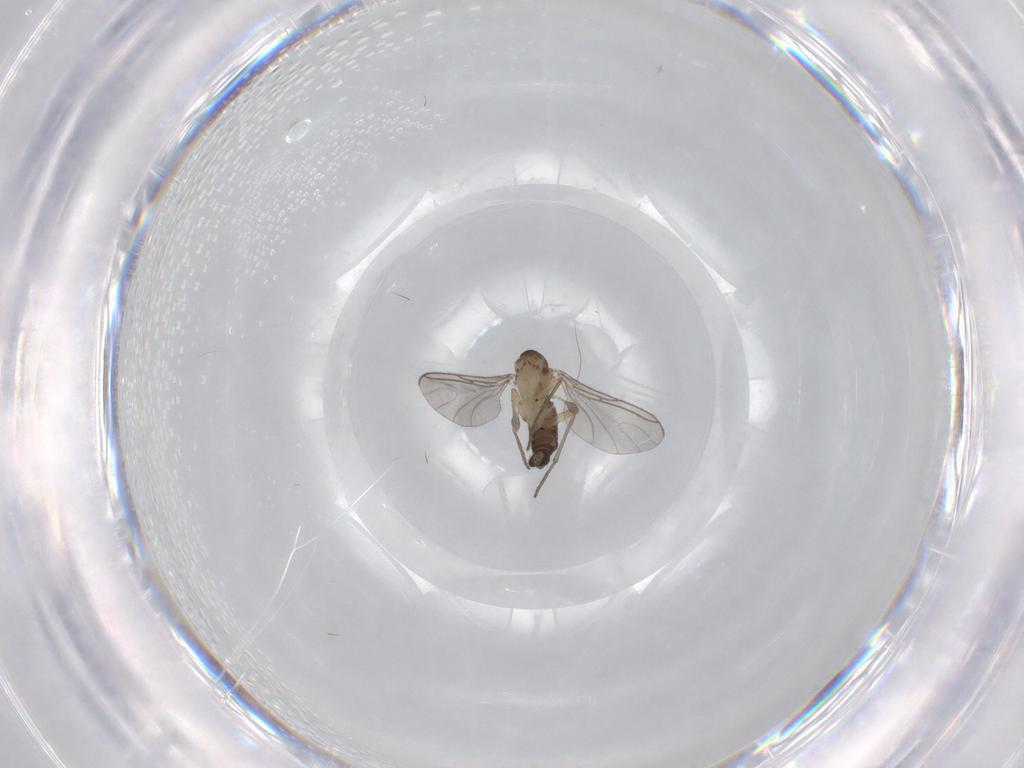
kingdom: Animalia
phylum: Arthropoda
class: Insecta
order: Diptera
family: Sciaridae
